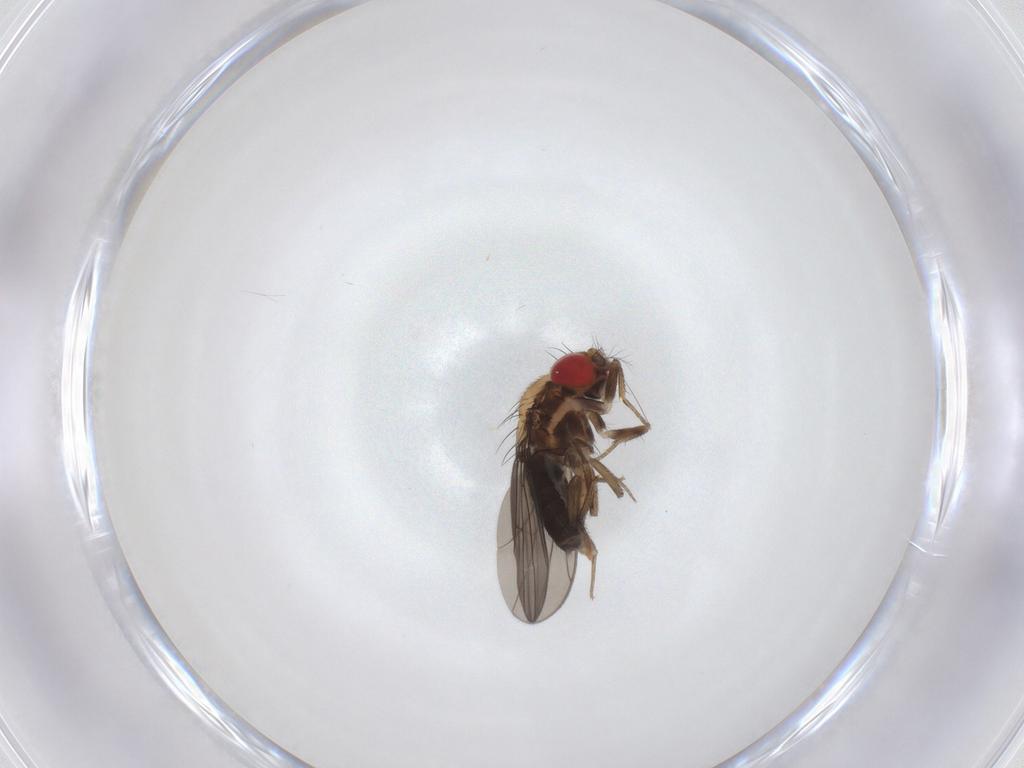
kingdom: Animalia
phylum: Arthropoda
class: Insecta
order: Diptera
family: Drosophilidae
